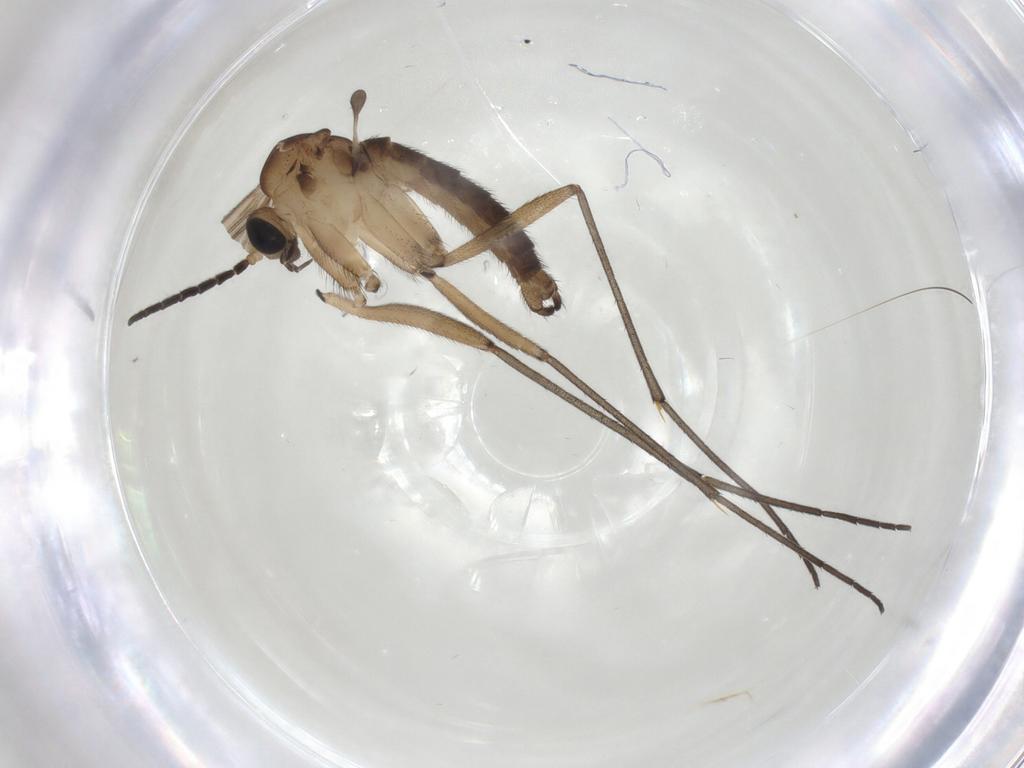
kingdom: Animalia
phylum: Arthropoda
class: Insecta
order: Diptera
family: Sciaridae
